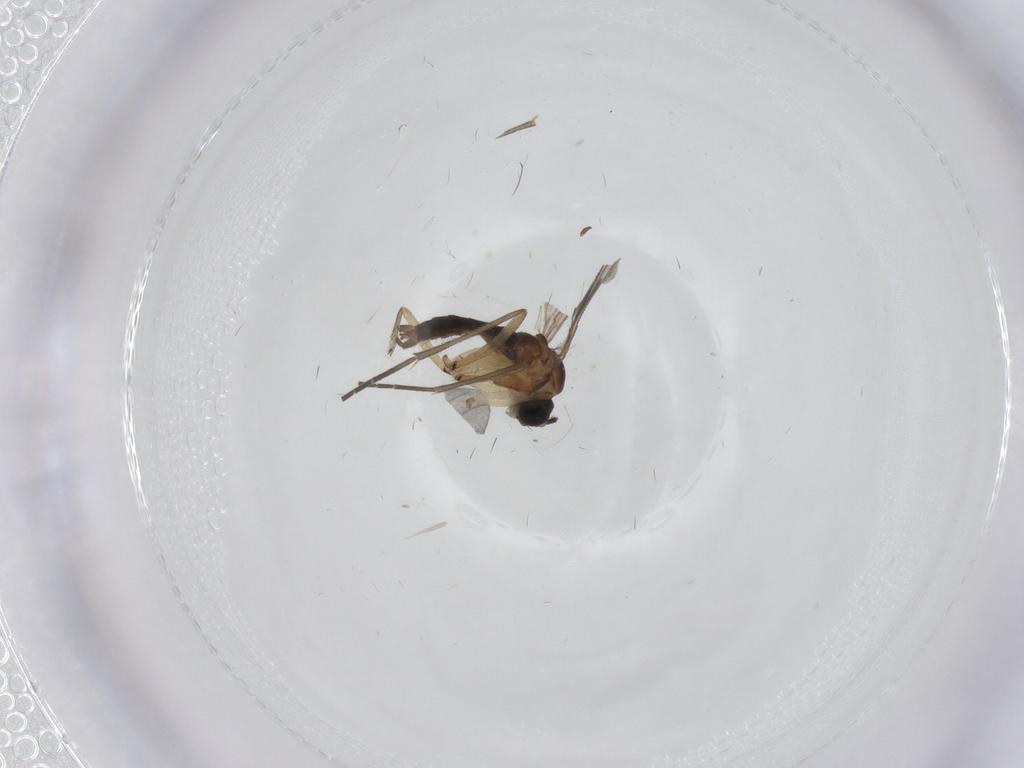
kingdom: Animalia
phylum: Arthropoda
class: Insecta
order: Diptera
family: Sciaridae
